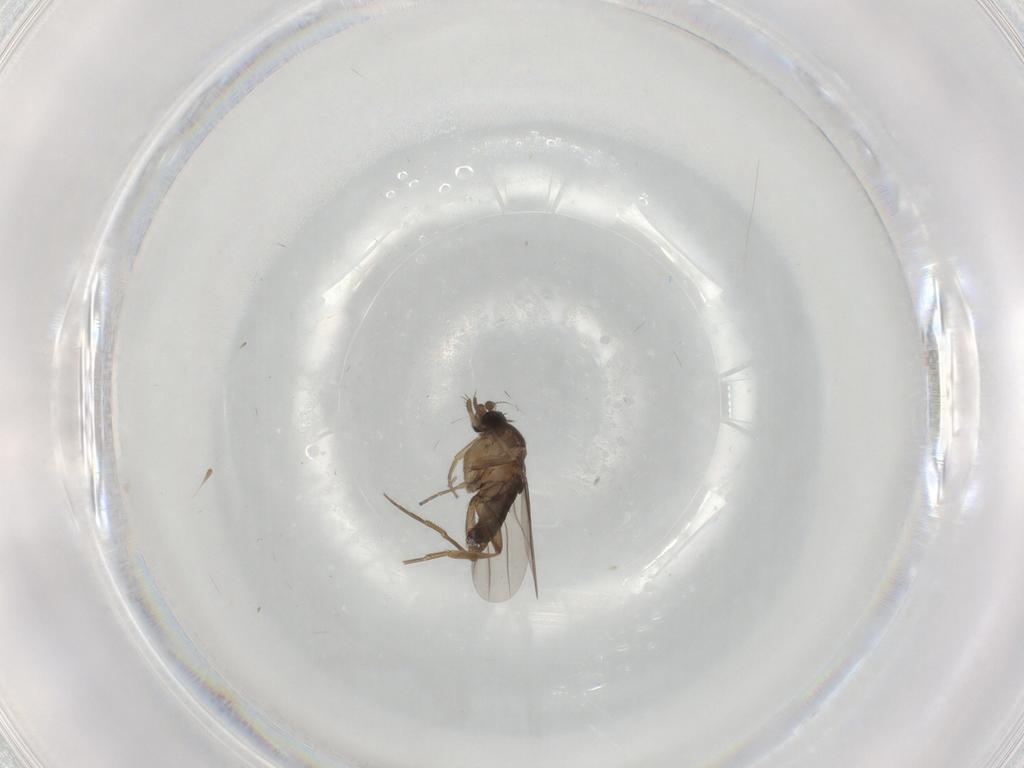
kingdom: Animalia
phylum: Arthropoda
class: Insecta
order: Diptera
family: Phoridae
